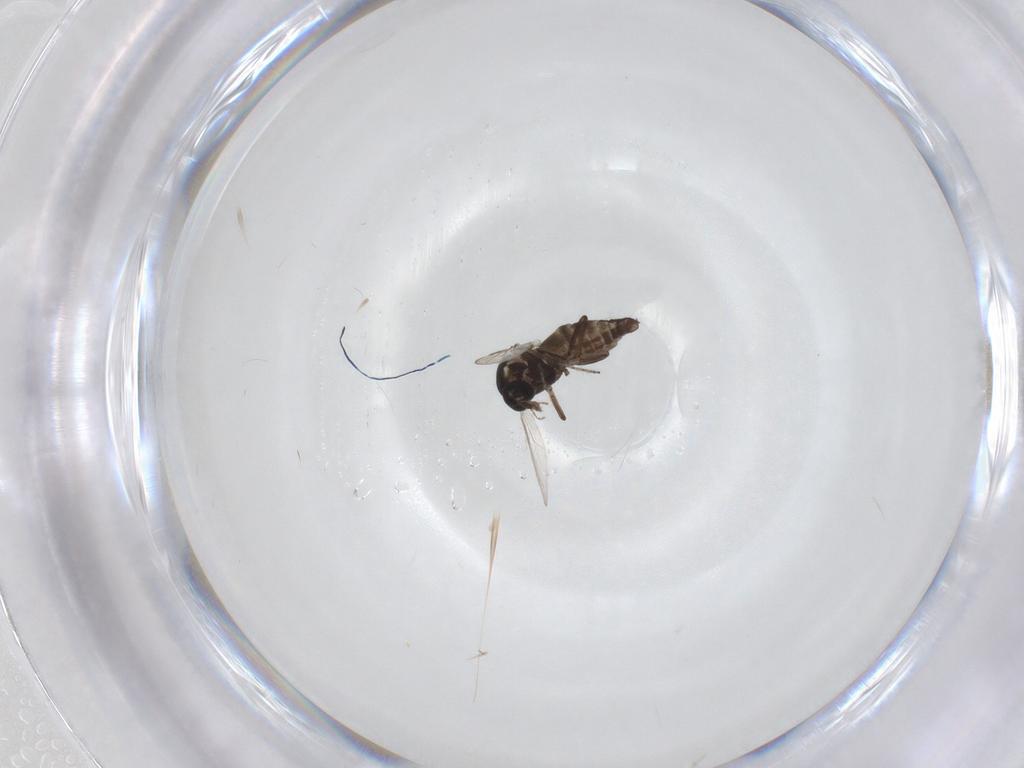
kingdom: Animalia
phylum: Arthropoda
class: Insecta
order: Diptera
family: Ceratopogonidae
